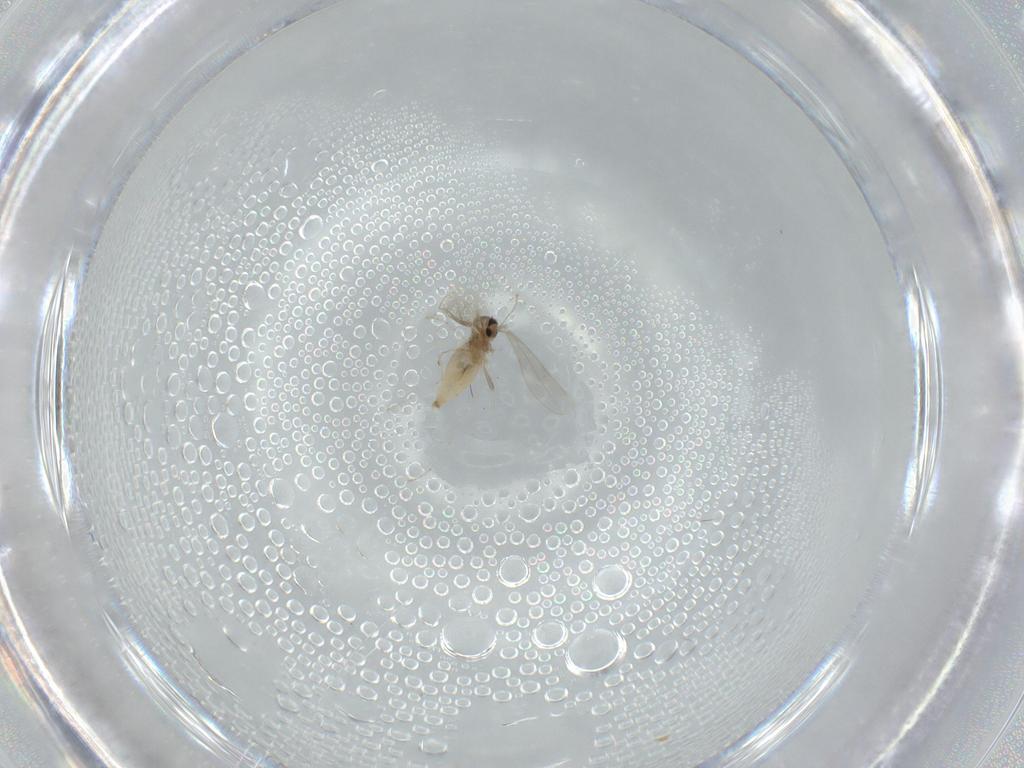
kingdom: Animalia
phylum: Arthropoda
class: Insecta
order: Diptera
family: Cecidomyiidae
